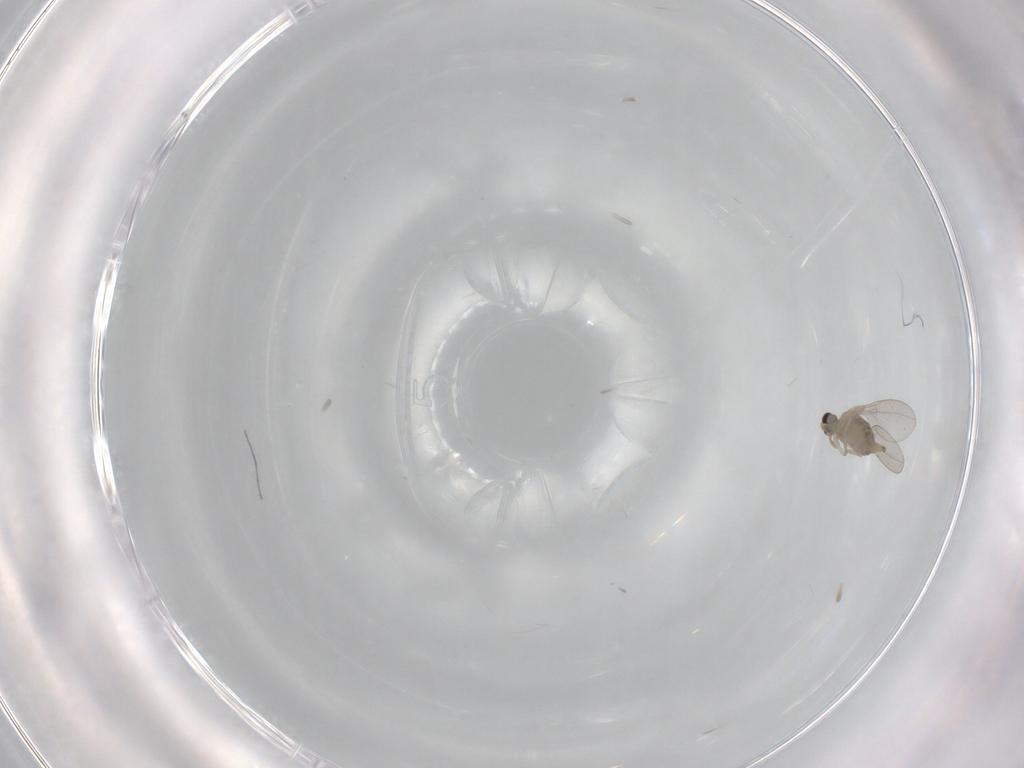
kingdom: Animalia
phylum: Arthropoda
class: Insecta
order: Diptera
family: Cecidomyiidae
